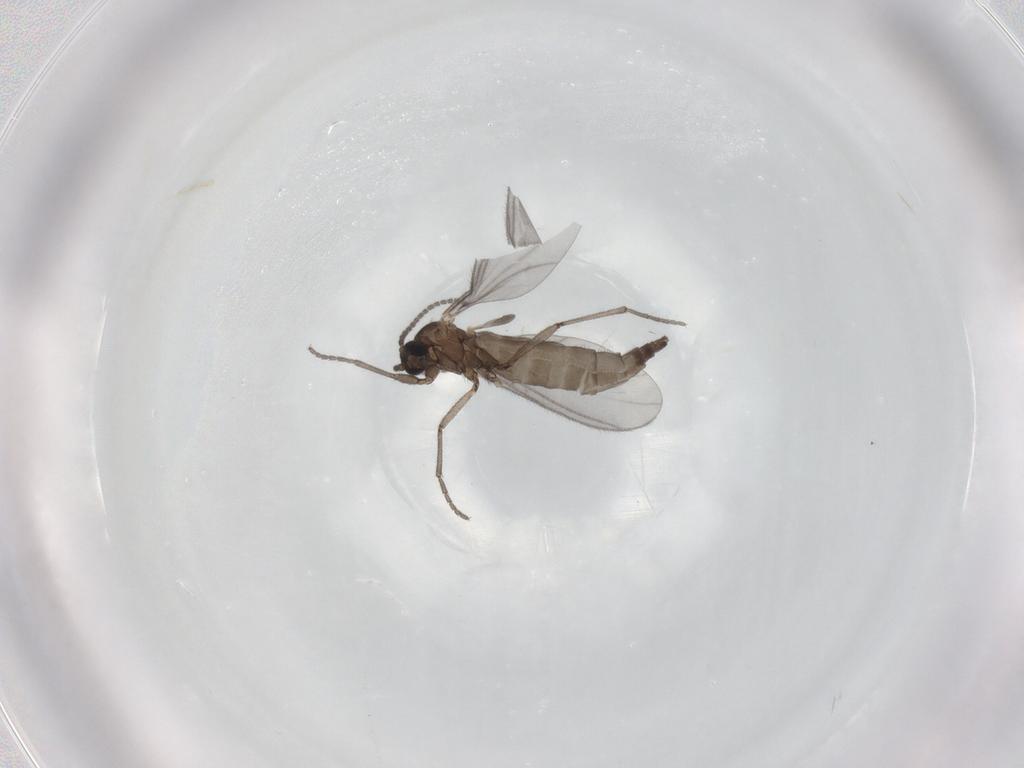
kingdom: Animalia
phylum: Arthropoda
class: Insecta
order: Diptera
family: Sciaridae
